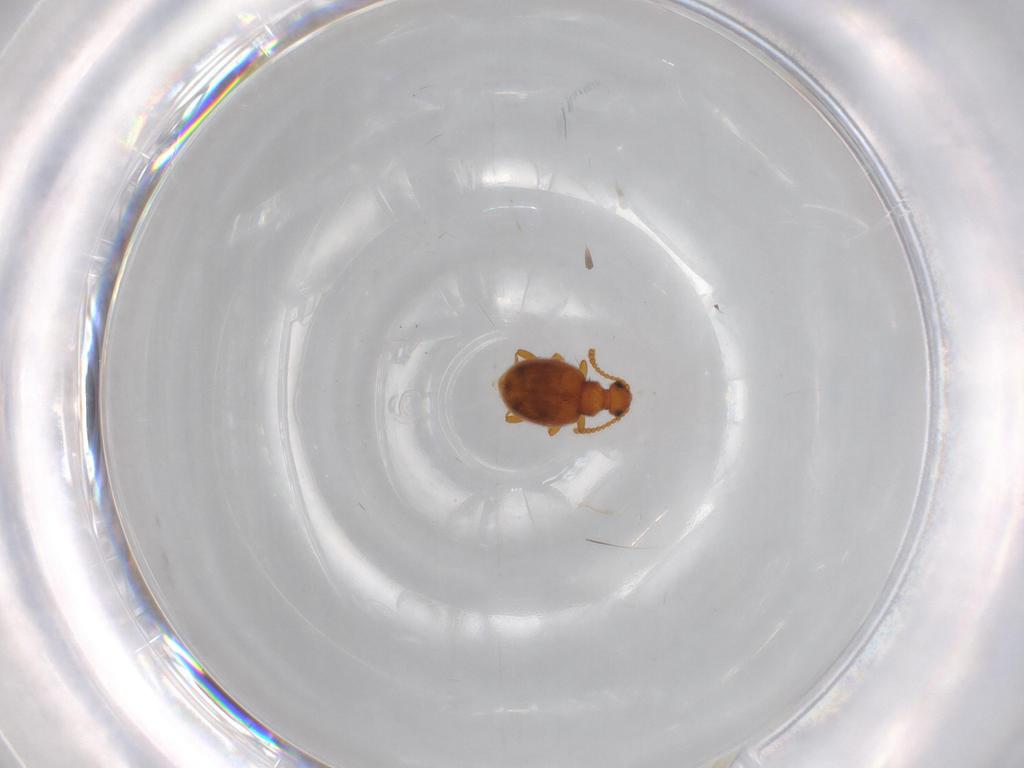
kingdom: Animalia
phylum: Arthropoda
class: Insecta
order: Coleoptera
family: Aderidae
